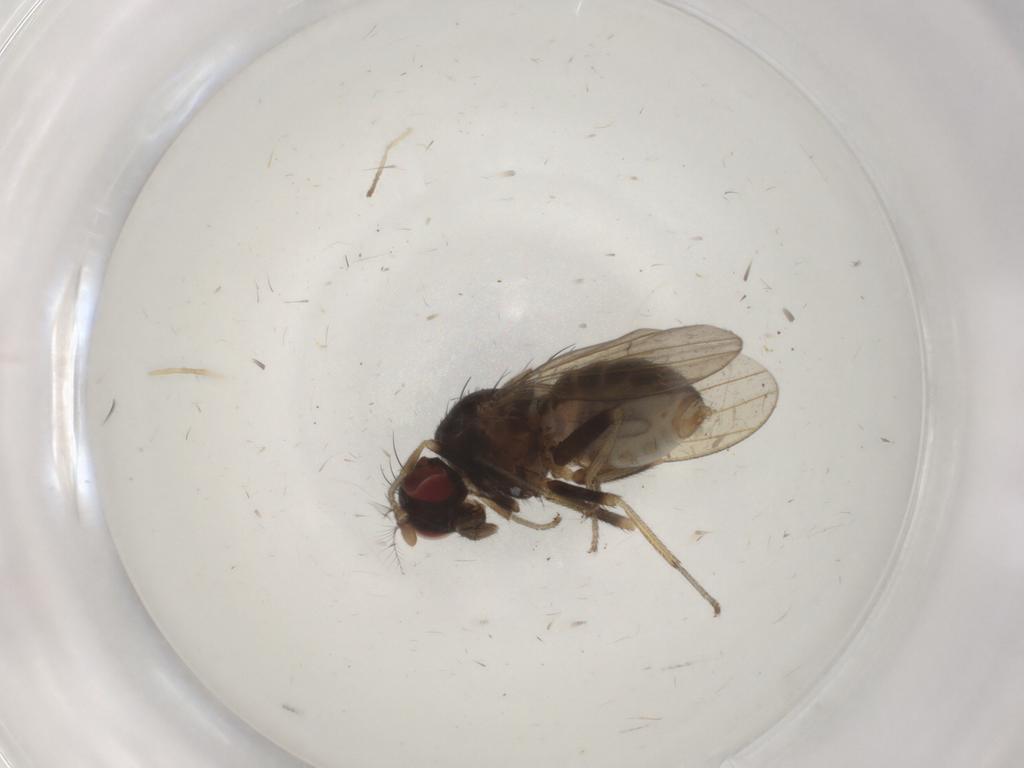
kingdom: Animalia
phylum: Arthropoda
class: Insecta
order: Diptera
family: Lauxaniidae
